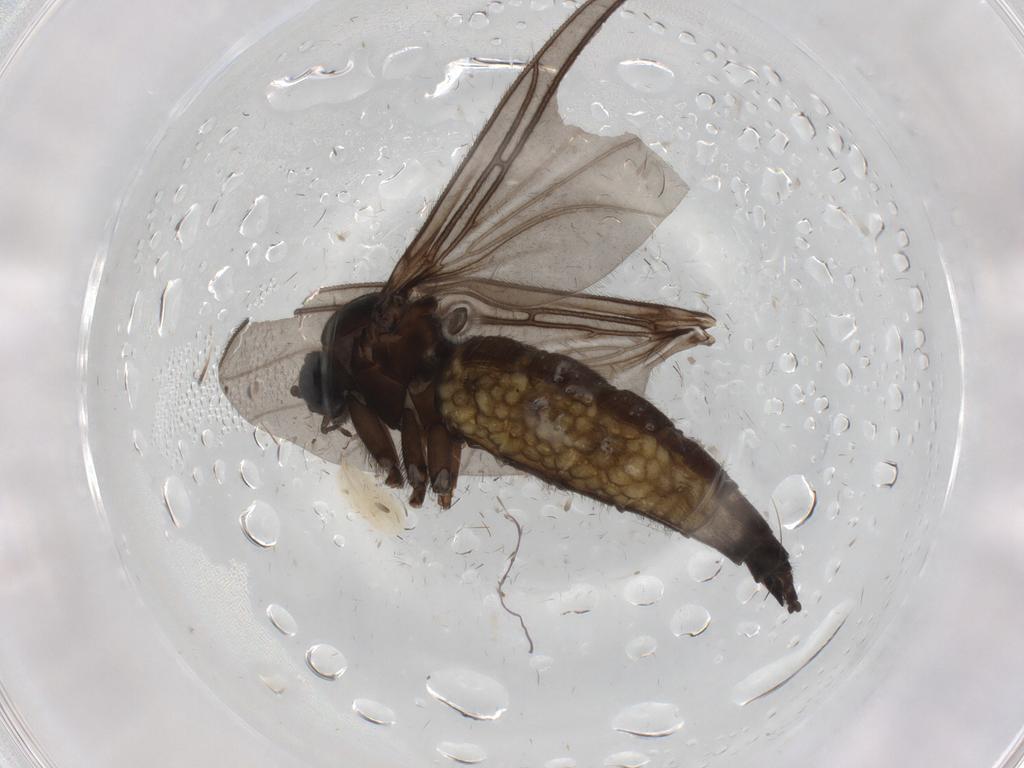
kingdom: Animalia
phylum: Arthropoda
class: Insecta
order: Diptera
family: Sciaridae
